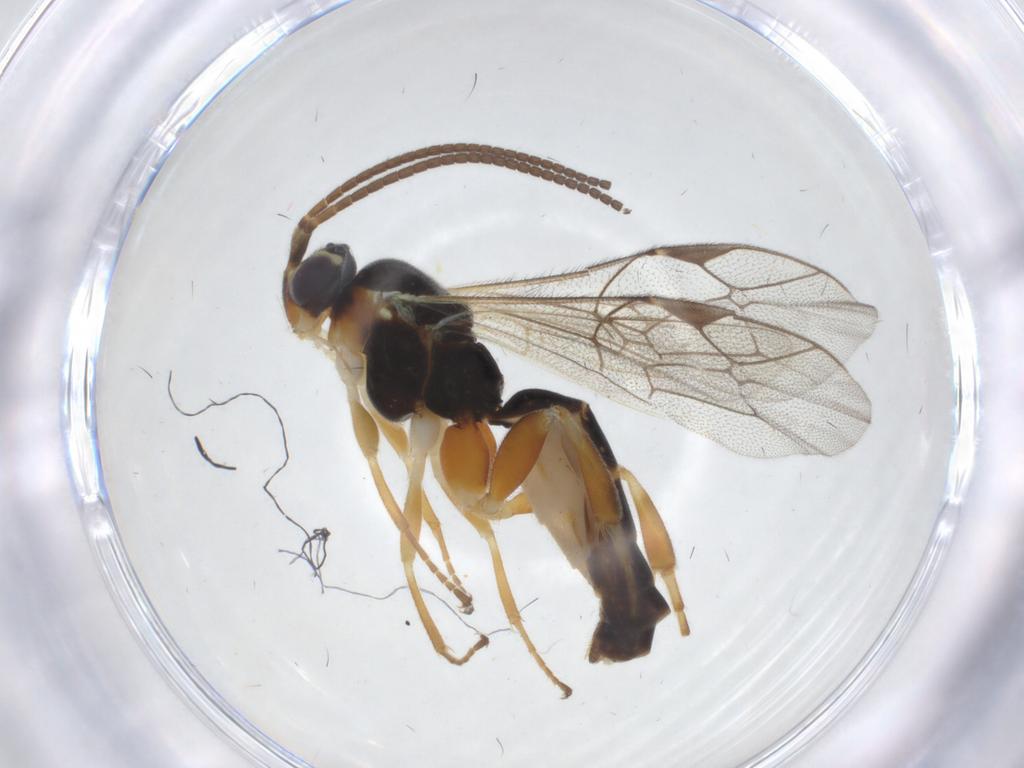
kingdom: Animalia
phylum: Arthropoda
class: Insecta
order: Hymenoptera
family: Ichneumonidae
